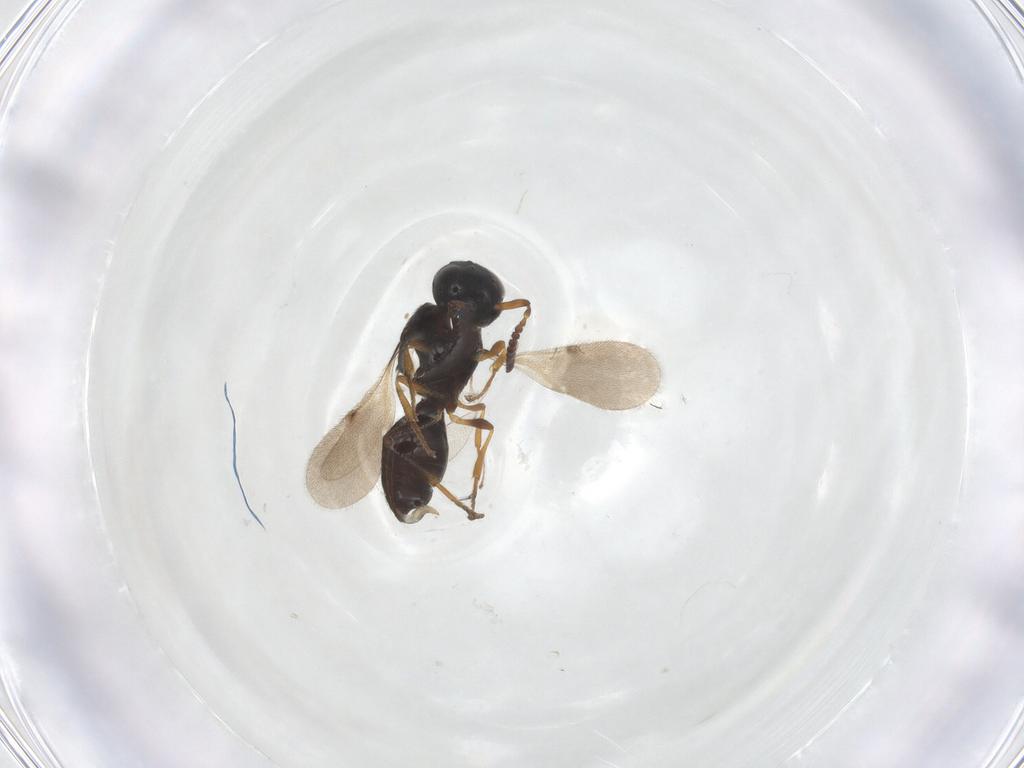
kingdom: Animalia
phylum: Arthropoda
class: Insecta
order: Hymenoptera
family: Scelionidae
